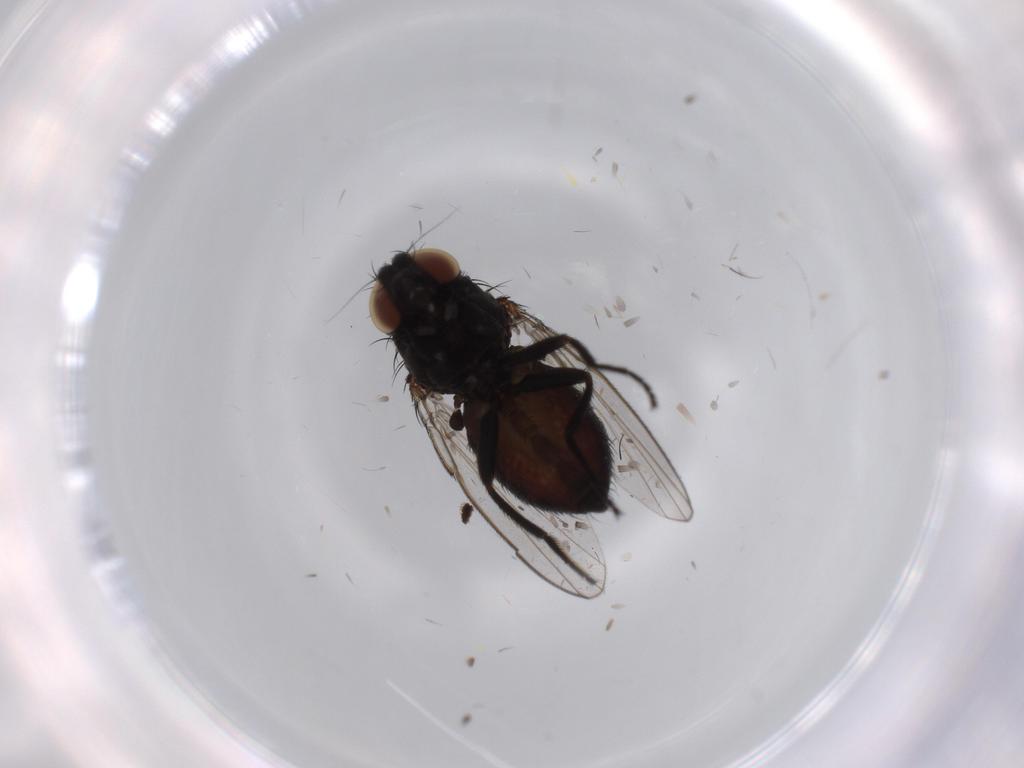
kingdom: Animalia
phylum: Arthropoda
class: Insecta
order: Diptera
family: Milichiidae
